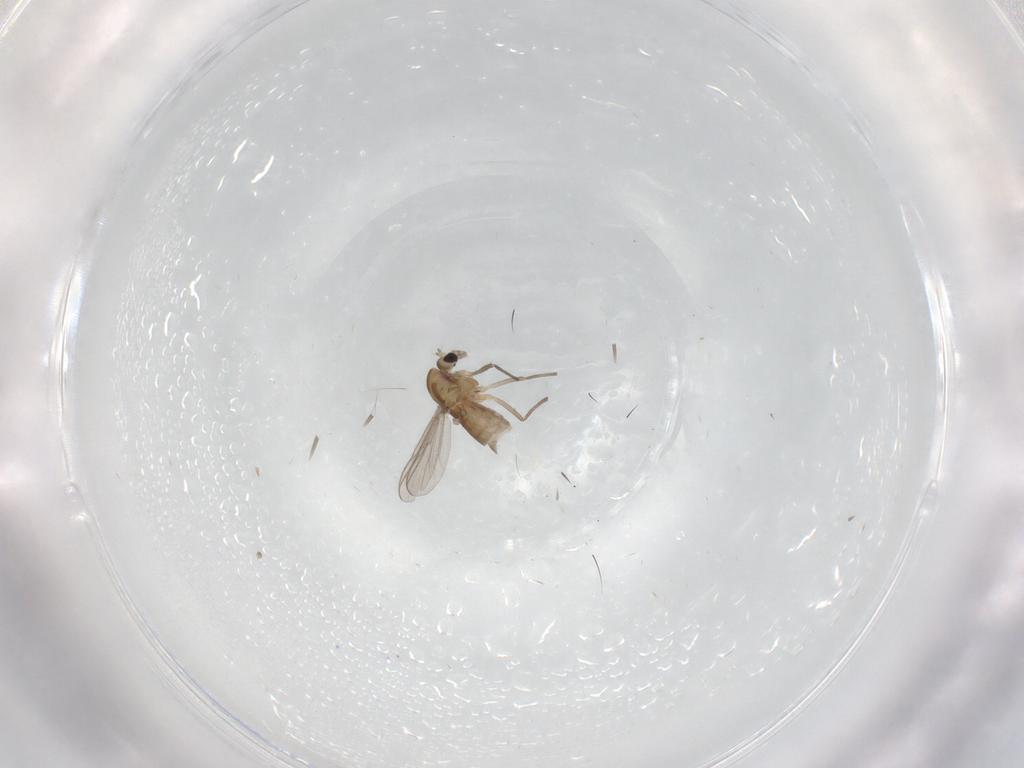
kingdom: Animalia
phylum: Arthropoda
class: Insecta
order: Diptera
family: Chironomidae
